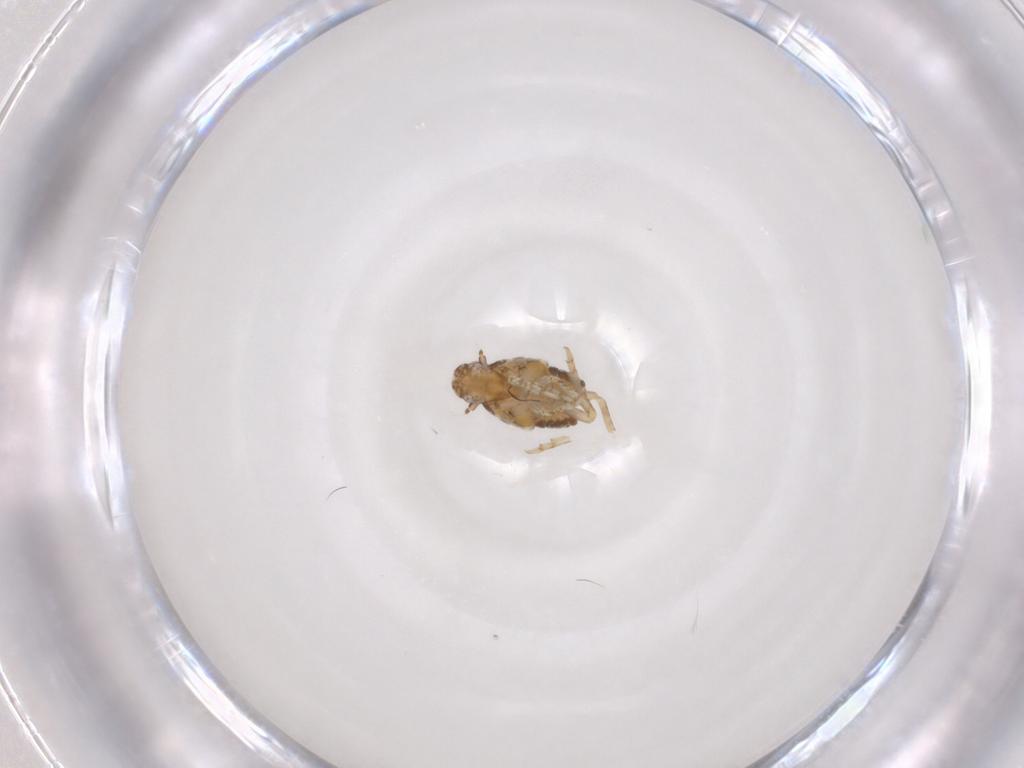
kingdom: Animalia
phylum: Arthropoda
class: Insecta
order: Hemiptera
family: Flatidae
